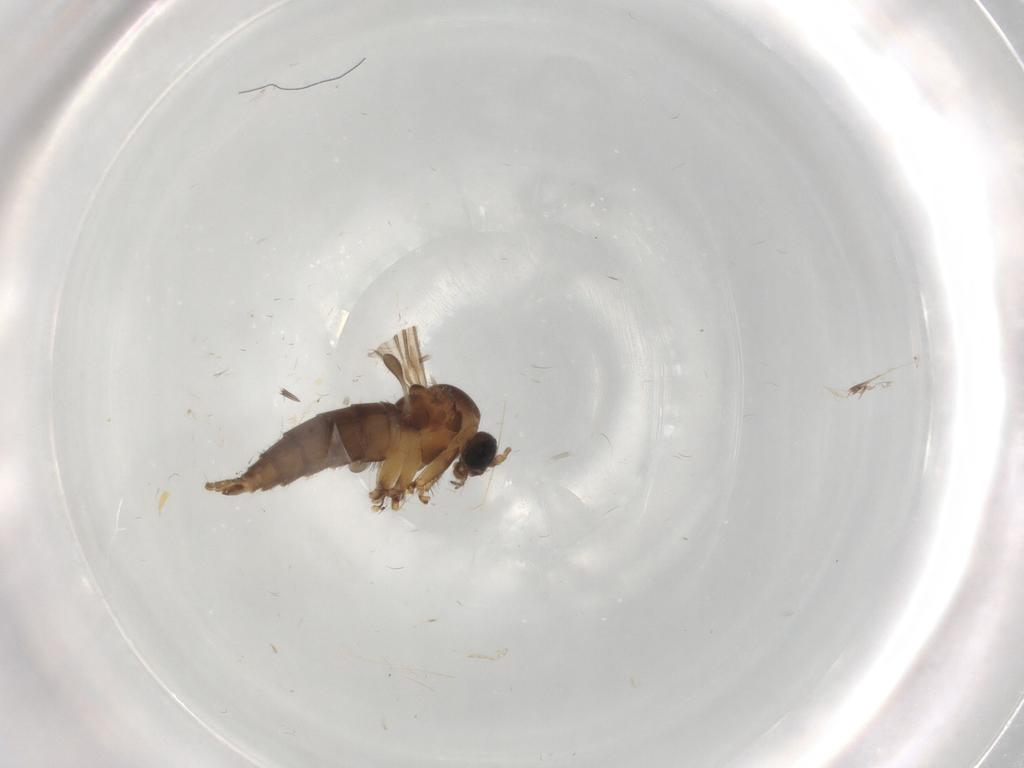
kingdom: Animalia
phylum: Arthropoda
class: Insecta
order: Diptera
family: Sciaridae
